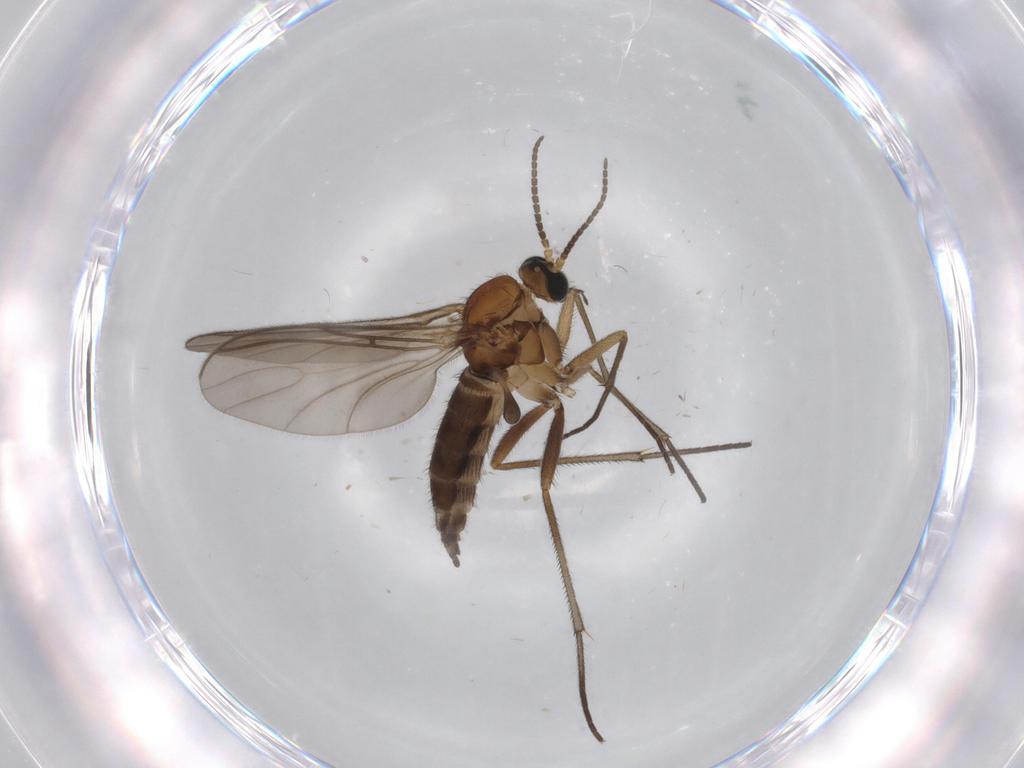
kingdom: Animalia
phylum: Arthropoda
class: Insecta
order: Diptera
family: Sciaridae
